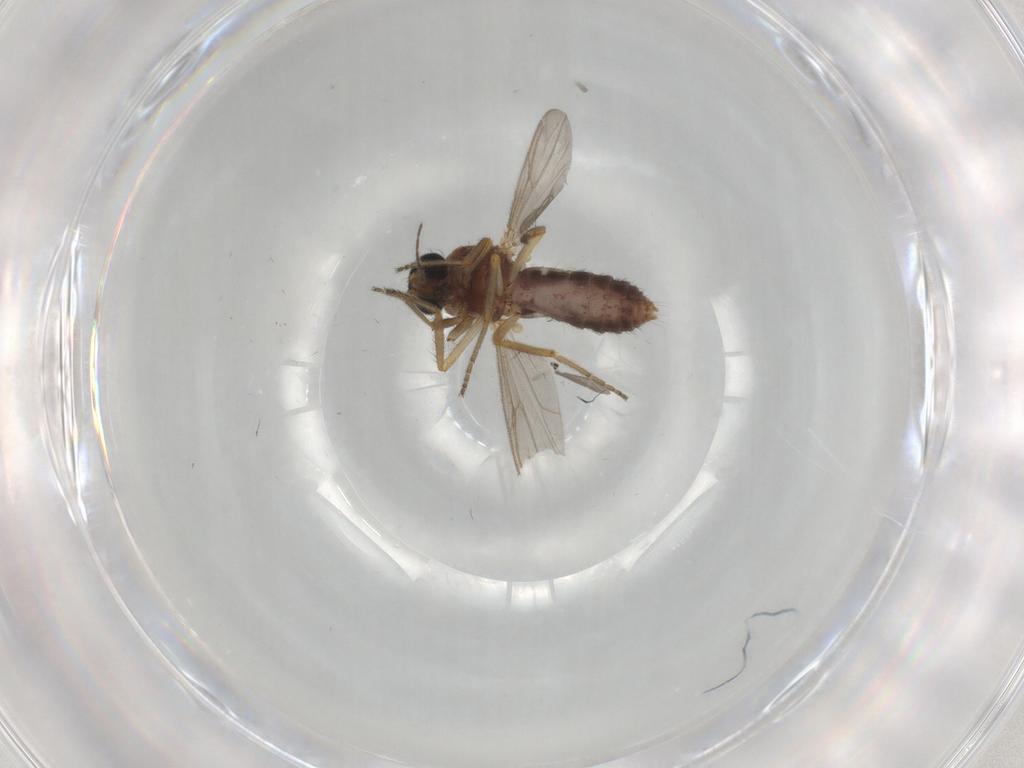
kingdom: Animalia
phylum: Arthropoda
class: Insecta
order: Diptera
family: Ceratopogonidae
